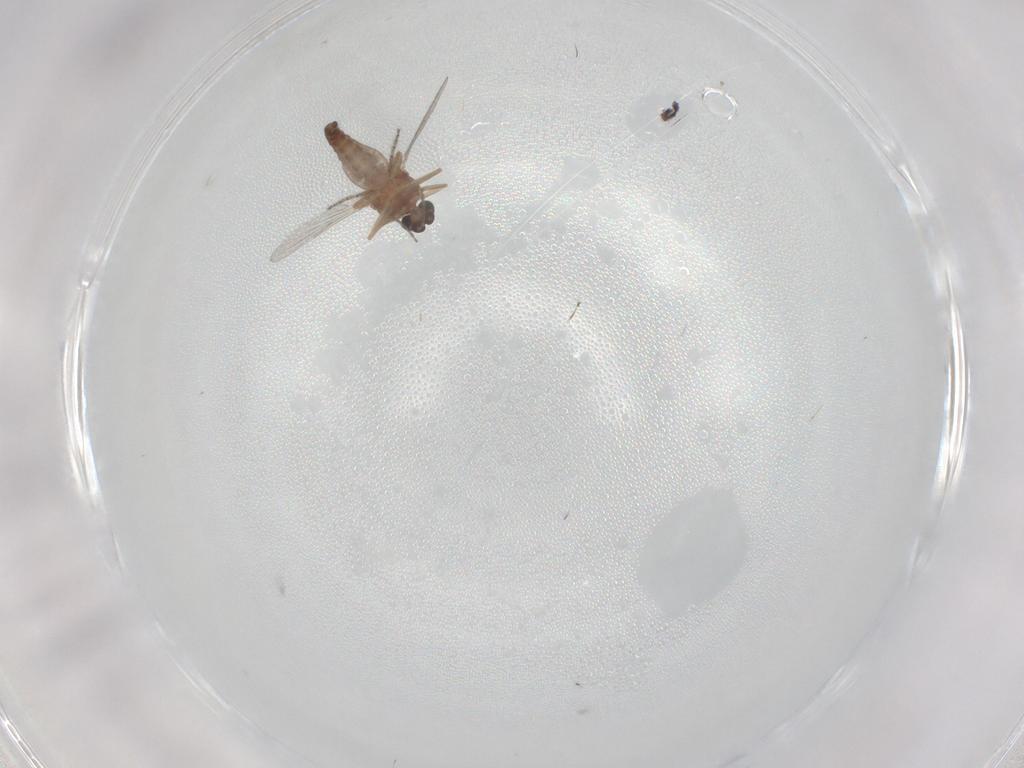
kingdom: Animalia
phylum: Arthropoda
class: Insecta
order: Diptera
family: Ceratopogonidae
